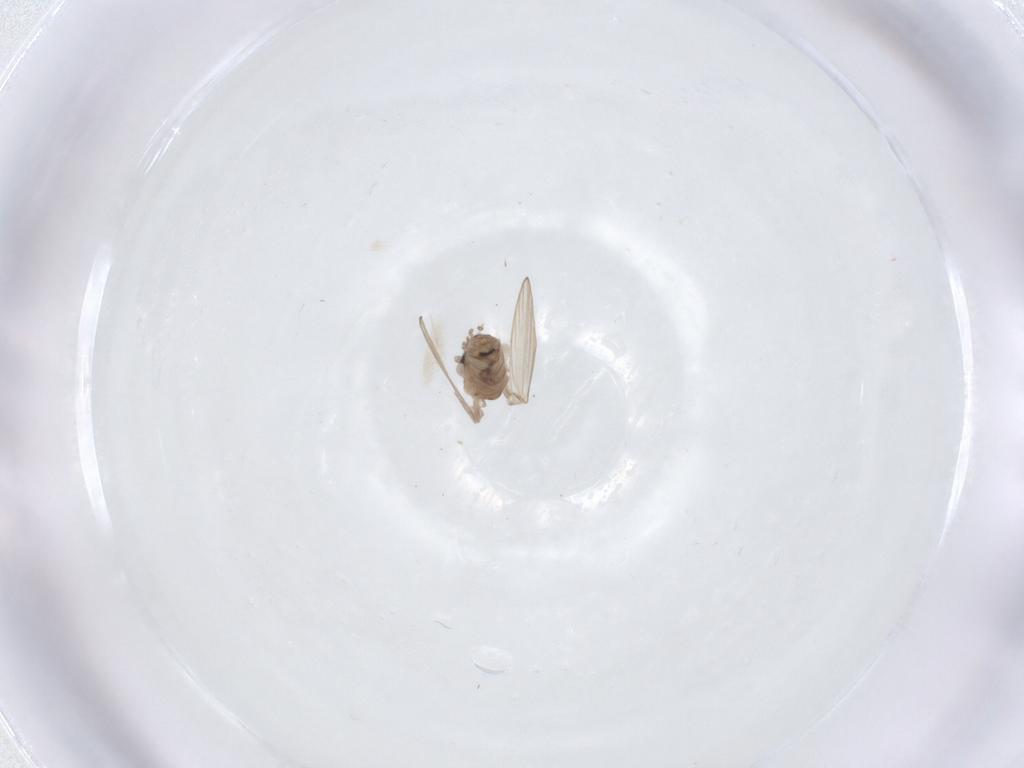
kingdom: Animalia
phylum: Arthropoda
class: Insecta
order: Diptera
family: Psychodidae
